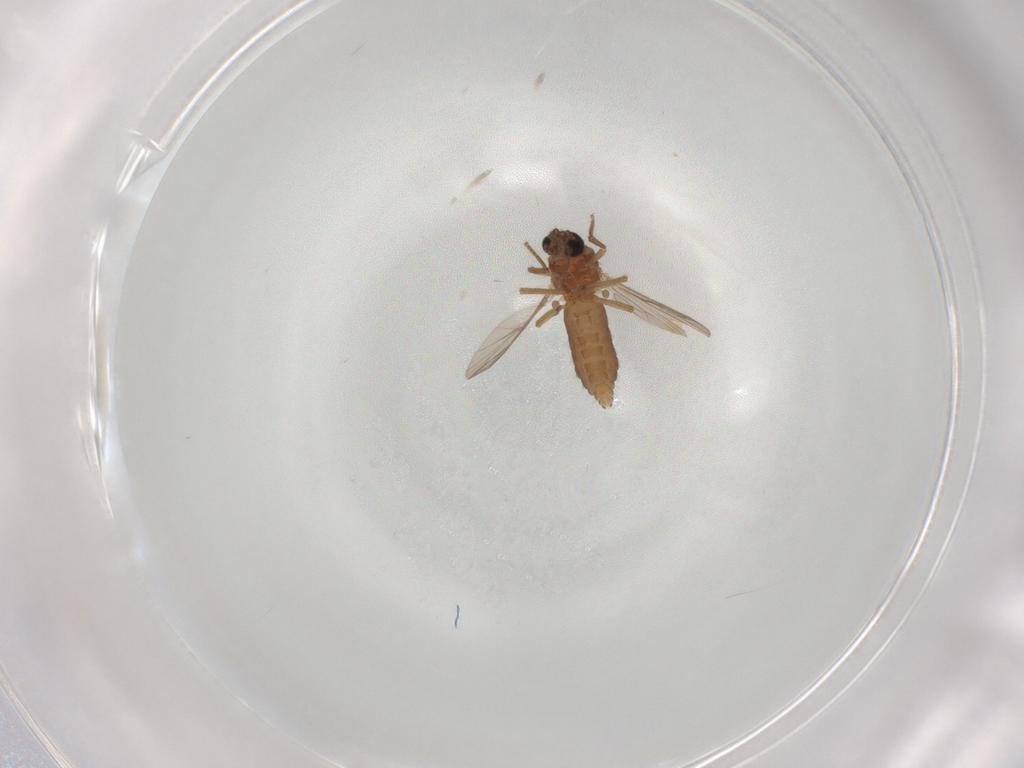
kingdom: Animalia
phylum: Arthropoda
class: Insecta
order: Diptera
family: Ceratopogonidae
